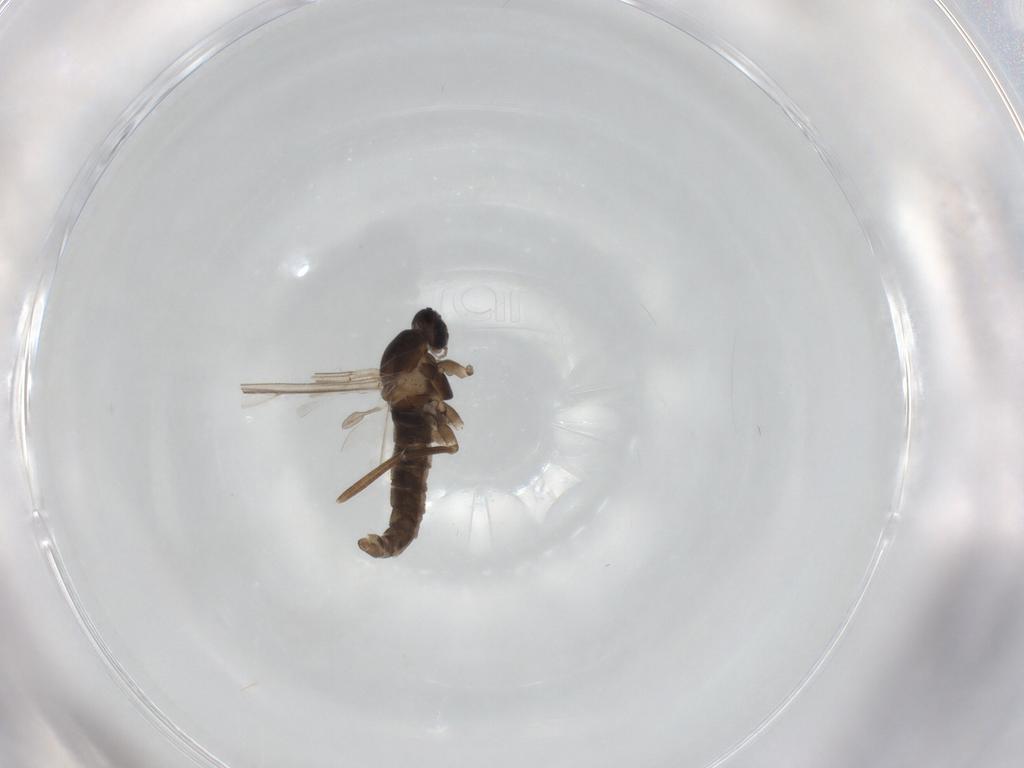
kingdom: Animalia
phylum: Arthropoda
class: Insecta
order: Diptera
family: Cecidomyiidae
